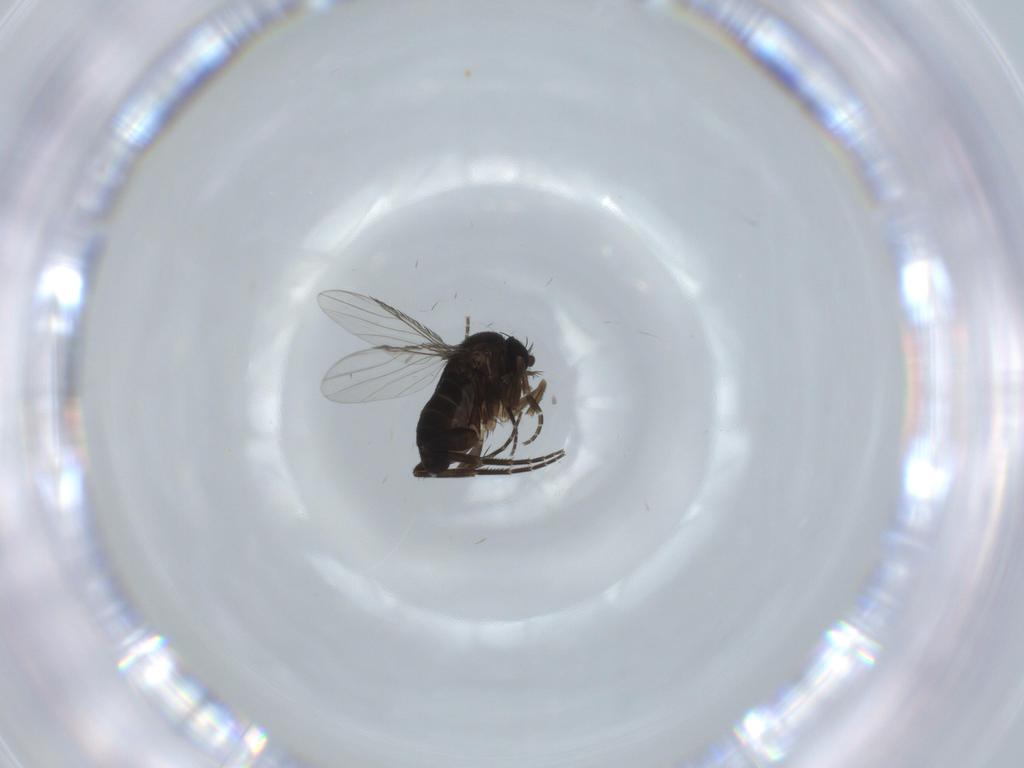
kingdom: Animalia
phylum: Arthropoda
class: Insecta
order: Diptera
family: Phoridae
